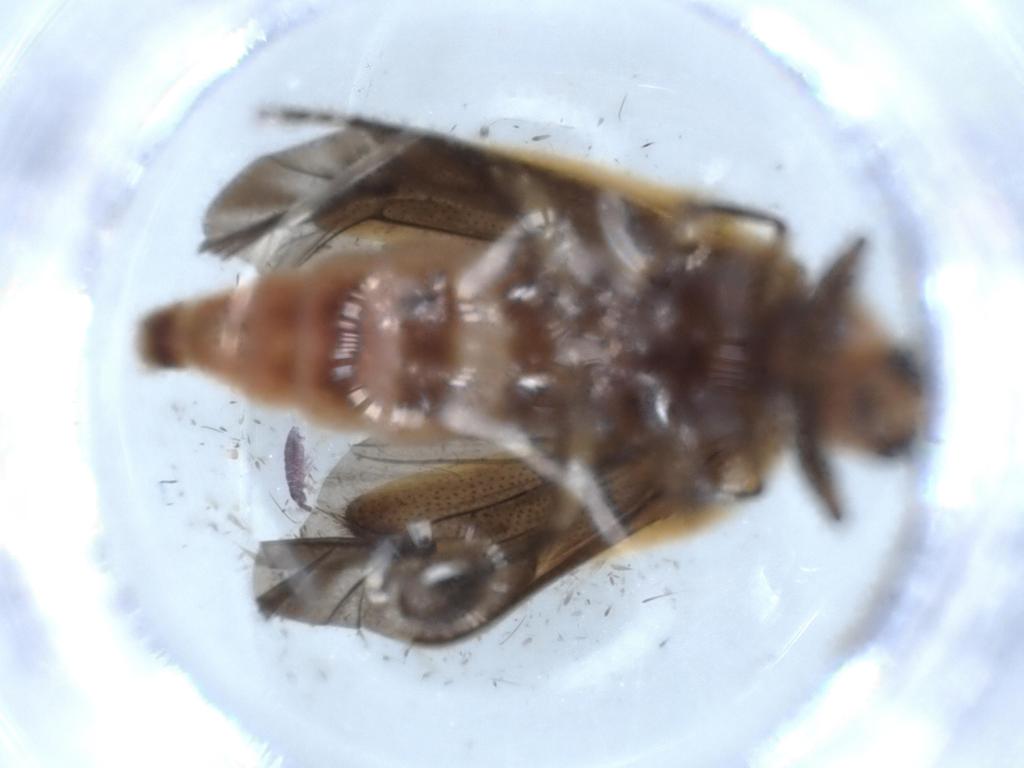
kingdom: Animalia
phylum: Arthropoda
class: Insecta
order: Coleoptera
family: Cleridae
